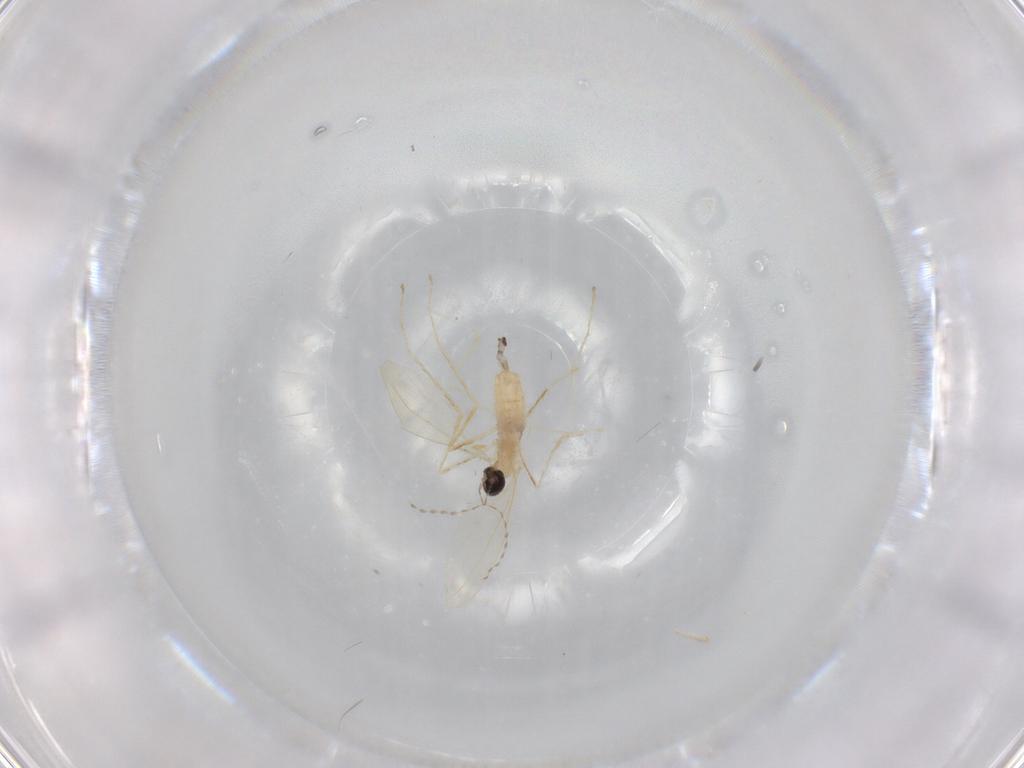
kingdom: Animalia
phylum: Arthropoda
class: Insecta
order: Diptera
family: Cecidomyiidae
